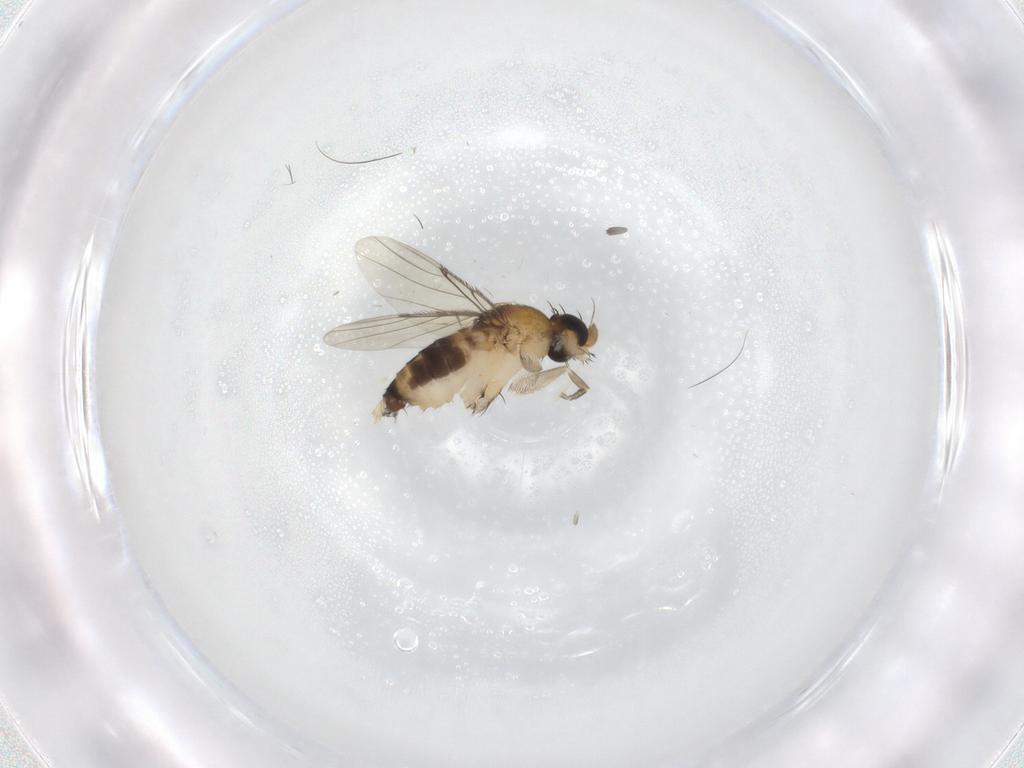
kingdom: Animalia
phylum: Arthropoda
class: Insecta
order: Diptera
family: Phoridae
